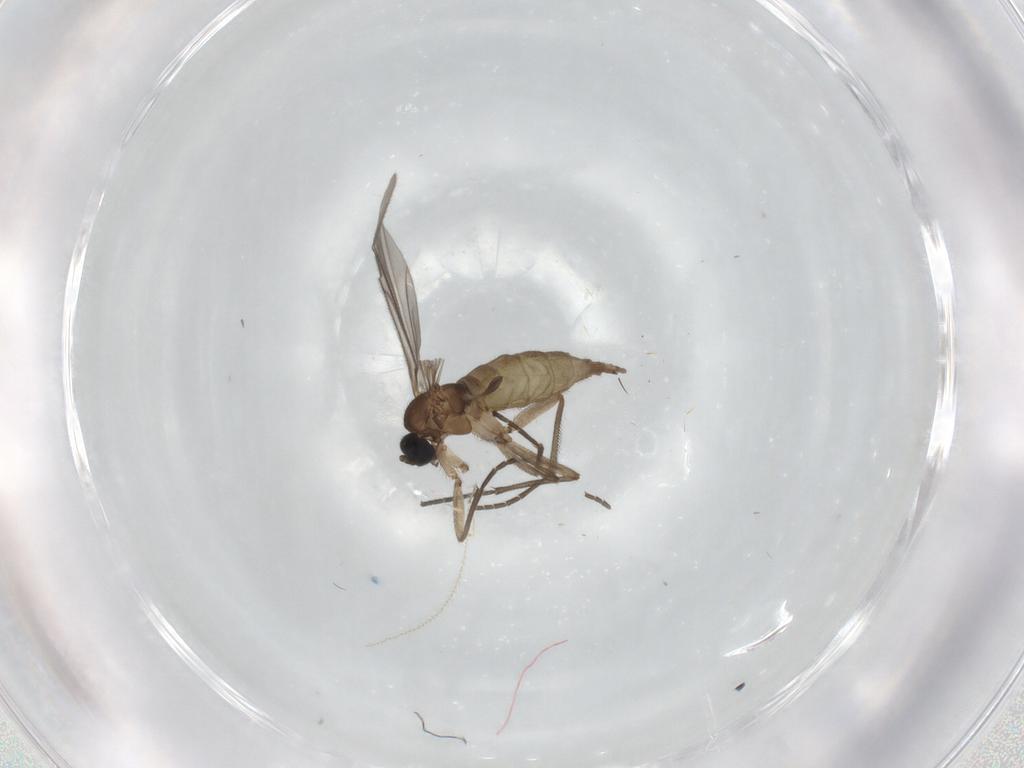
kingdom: Animalia
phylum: Arthropoda
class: Insecta
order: Diptera
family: Sciaridae
